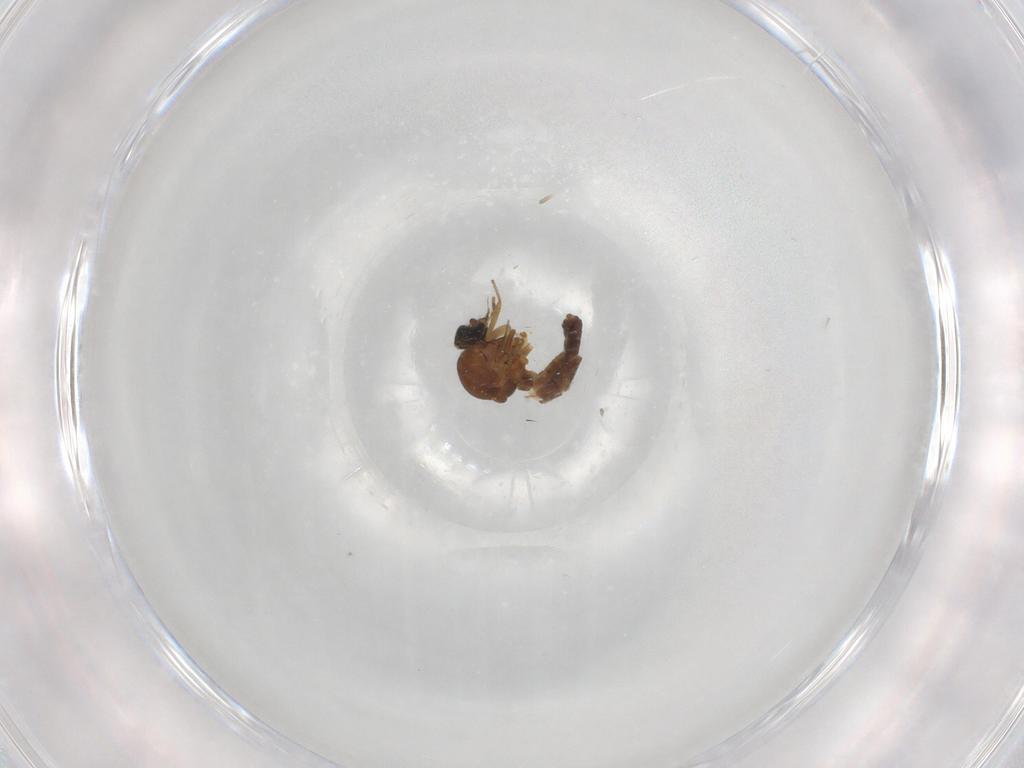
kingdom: Animalia
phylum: Arthropoda
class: Insecta
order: Diptera
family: Ceratopogonidae
